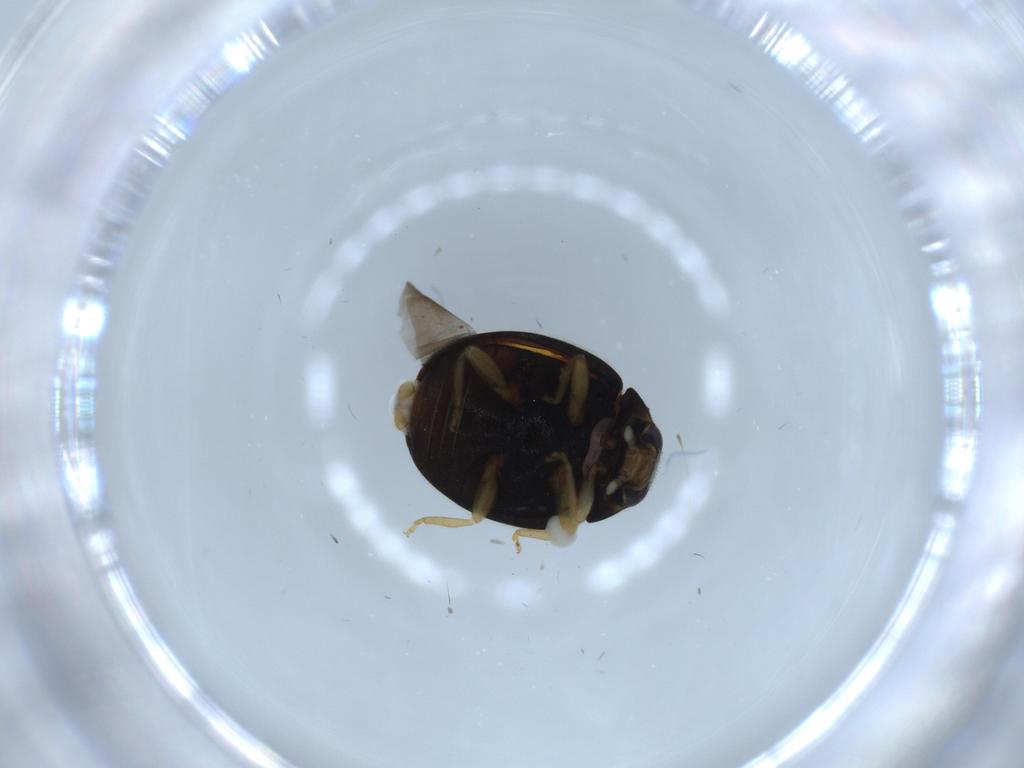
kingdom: Animalia
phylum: Arthropoda
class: Insecta
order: Coleoptera
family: Coccinellidae
